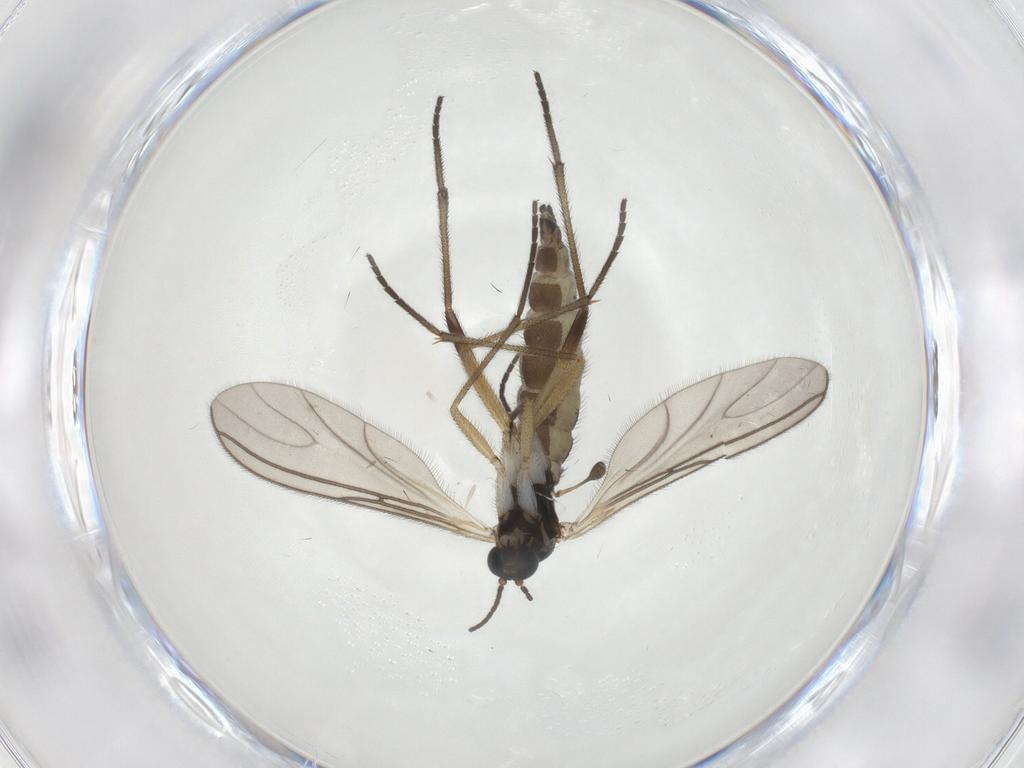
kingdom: Animalia
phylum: Arthropoda
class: Insecta
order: Diptera
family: Sciaridae
